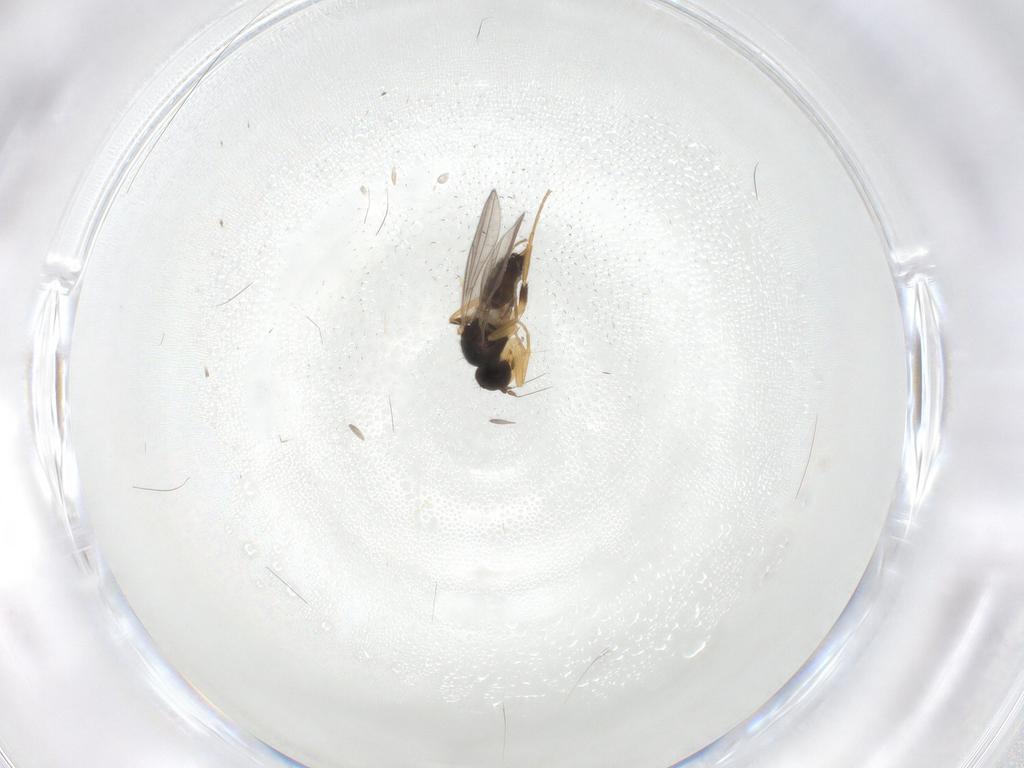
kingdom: Animalia
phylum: Arthropoda
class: Insecta
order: Diptera
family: Hybotidae
